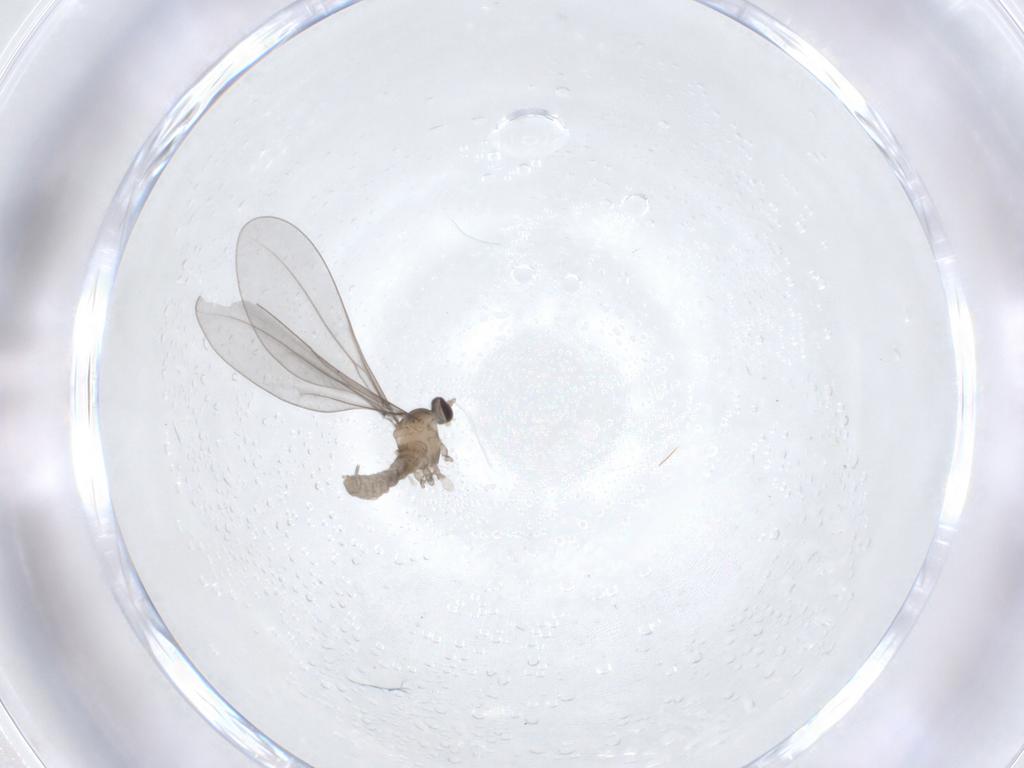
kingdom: Animalia
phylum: Arthropoda
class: Insecta
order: Diptera
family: Cecidomyiidae
